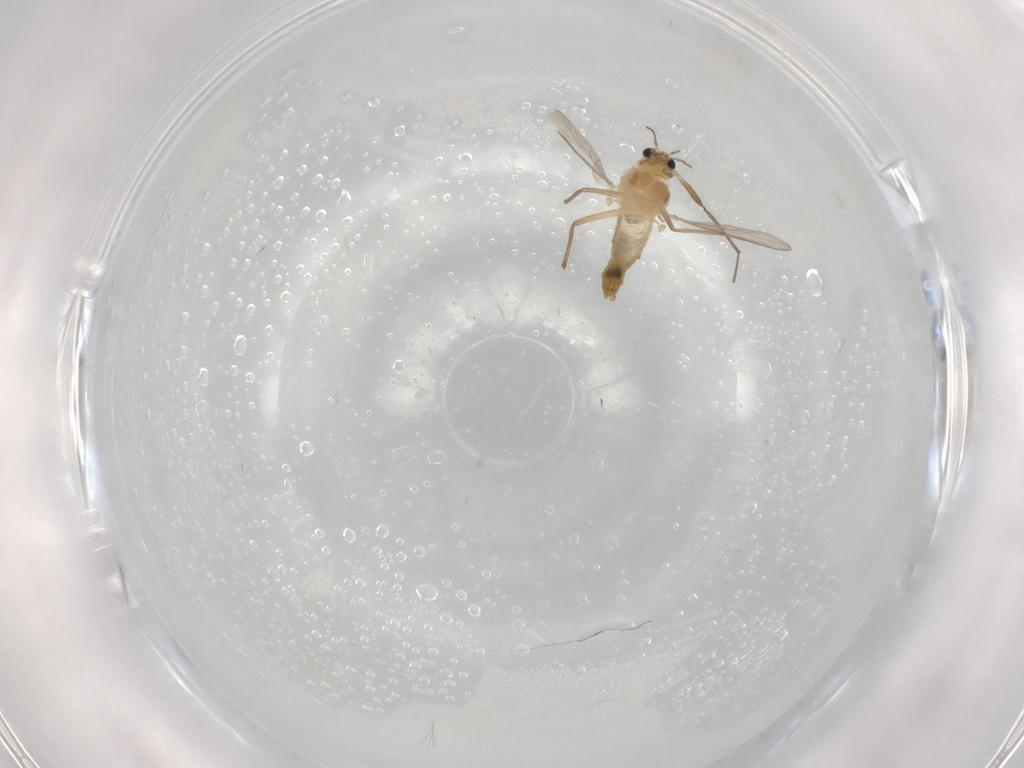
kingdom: Animalia
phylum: Arthropoda
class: Insecta
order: Diptera
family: Chironomidae
